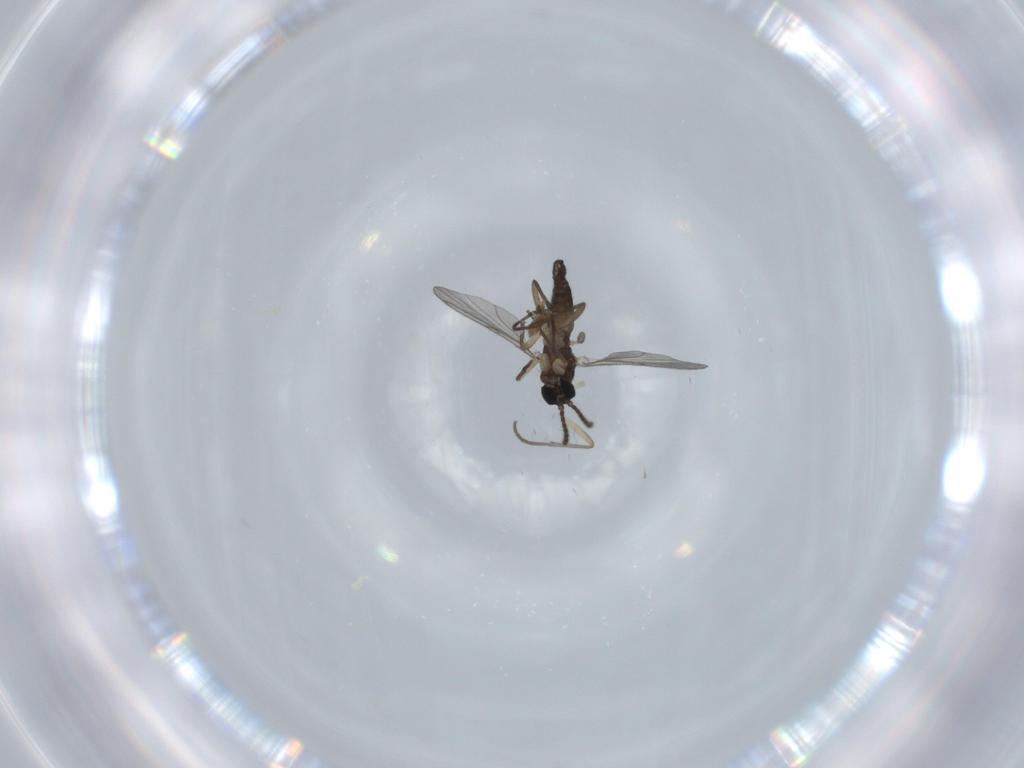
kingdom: Animalia
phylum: Arthropoda
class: Insecta
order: Diptera
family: Sciaridae
